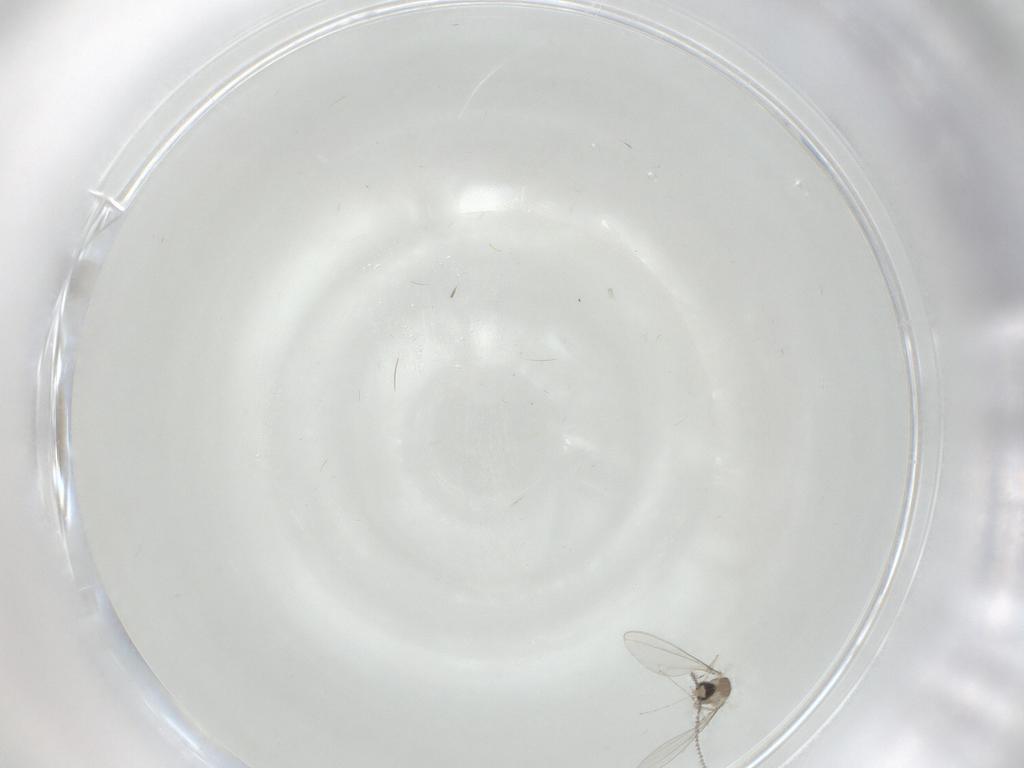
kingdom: Animalia
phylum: Arthropoda
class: Insecta
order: Diptera
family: Cecidomyiidae
